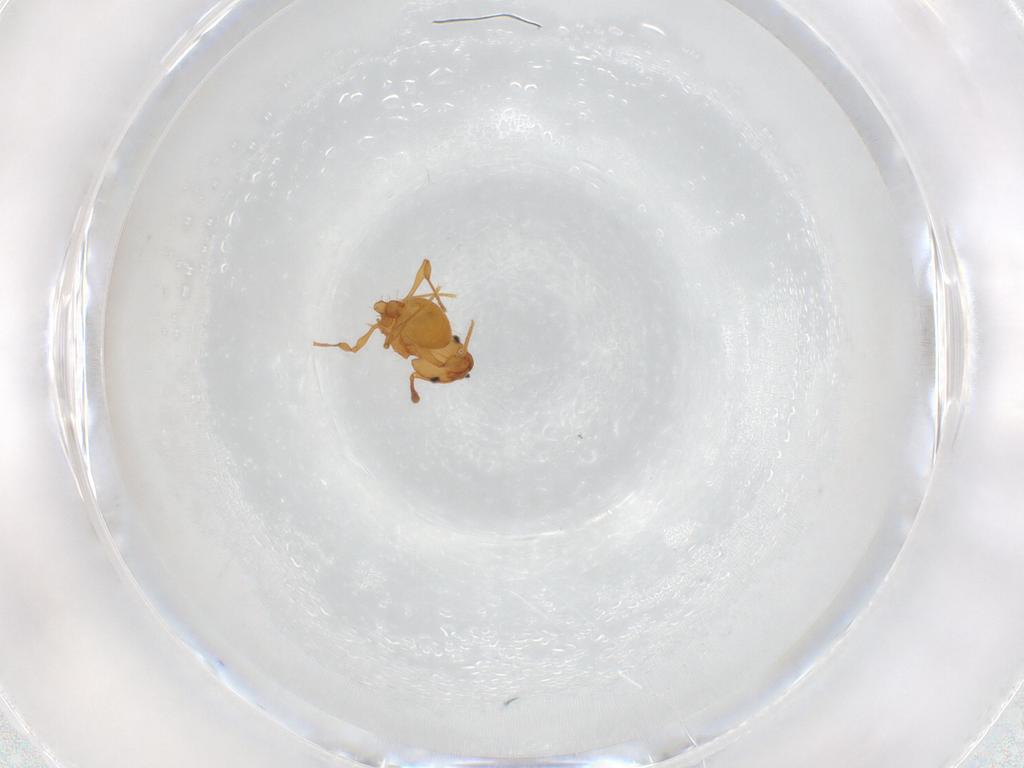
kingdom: Animalia
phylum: Arthropoda
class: Insecta
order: Hymenoptera
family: Formicidae
